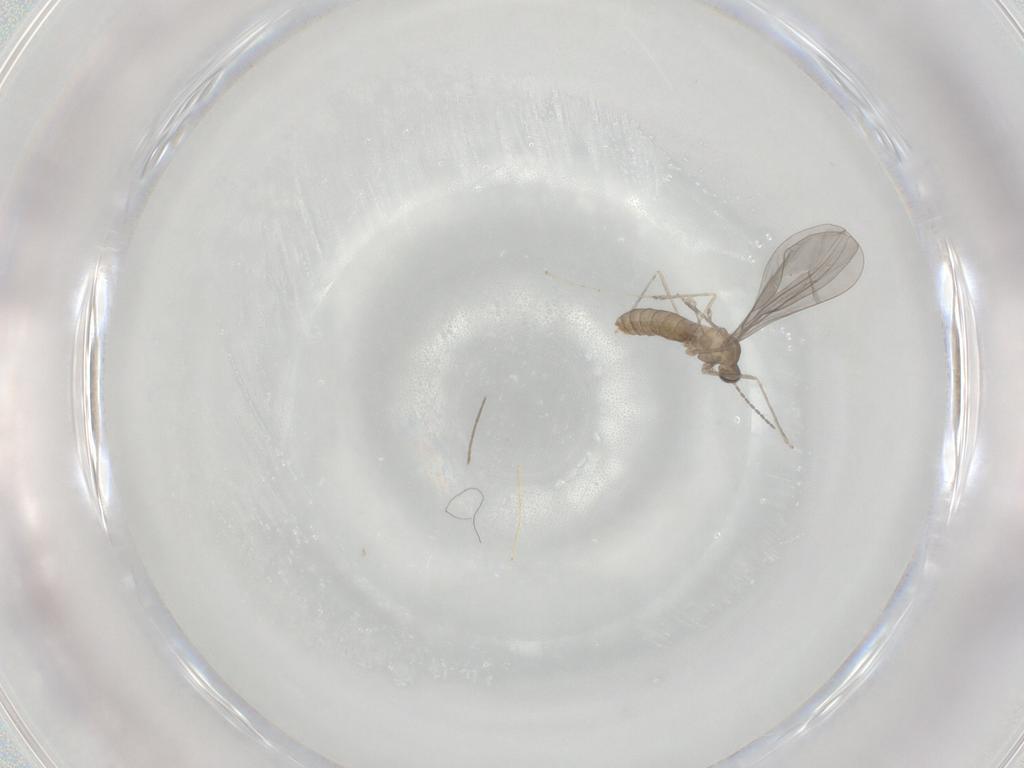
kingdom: Animalia
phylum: Arthropoda
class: Insecta
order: Diptera
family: Cecidomyiidae
